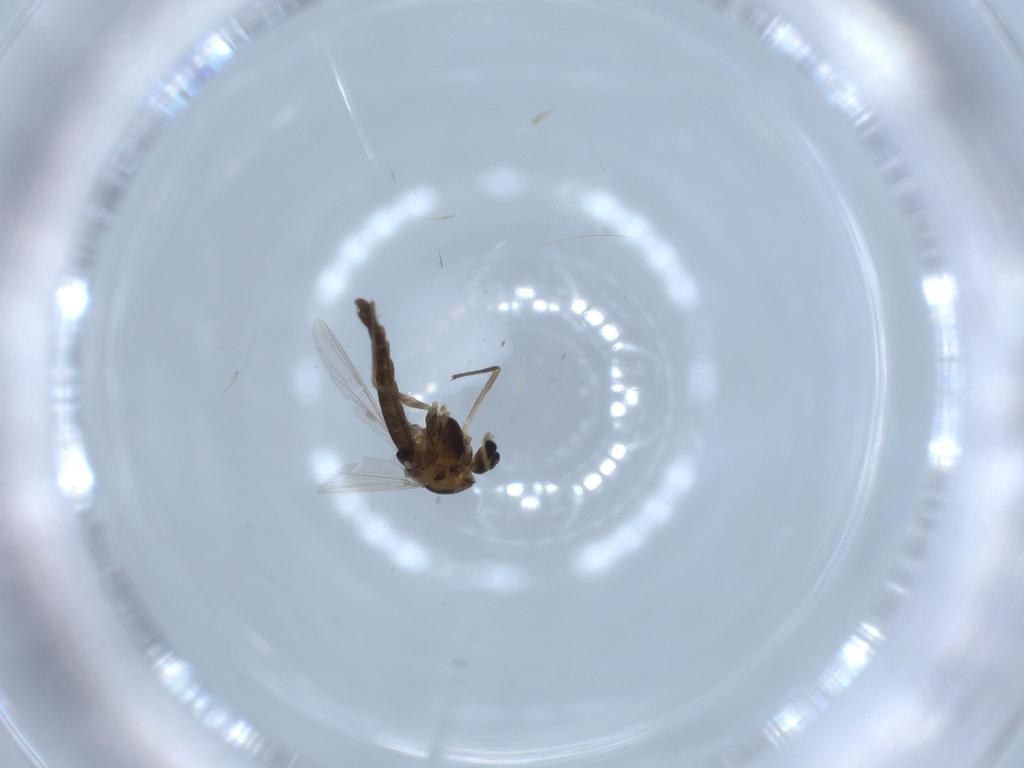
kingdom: Animalia
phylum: Arthropoda
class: Insecta
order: Diptera
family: Chironomidae
